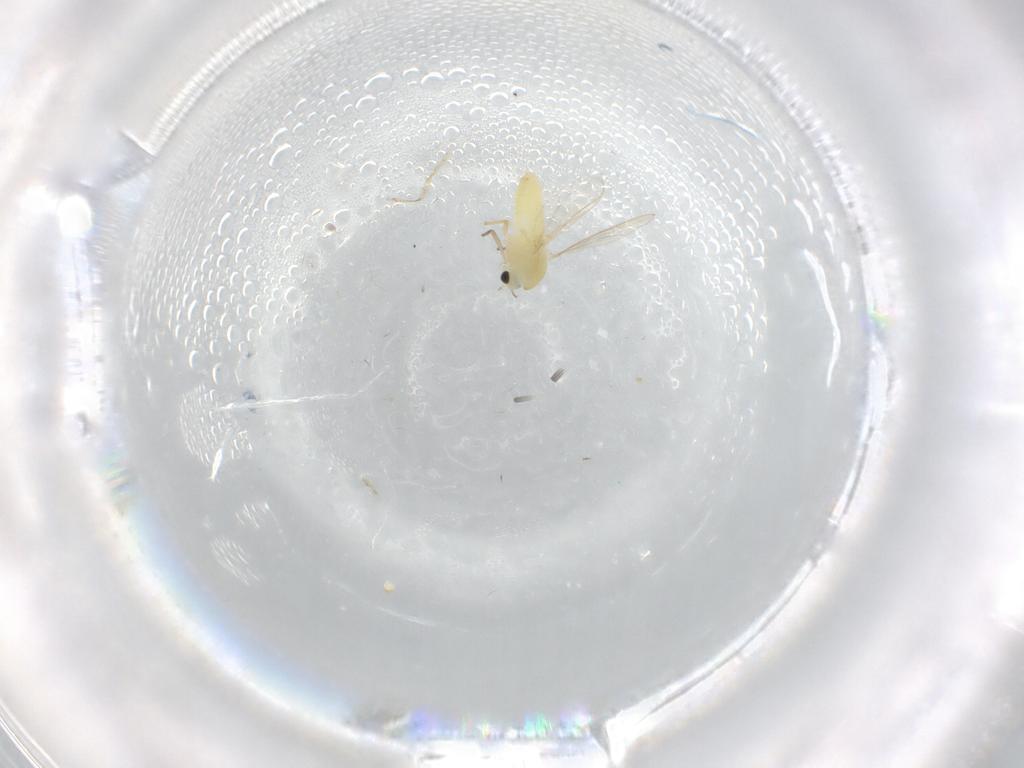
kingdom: Animalia
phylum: Arthropoda
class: Insecta
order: Diptera
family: Chironomidae
